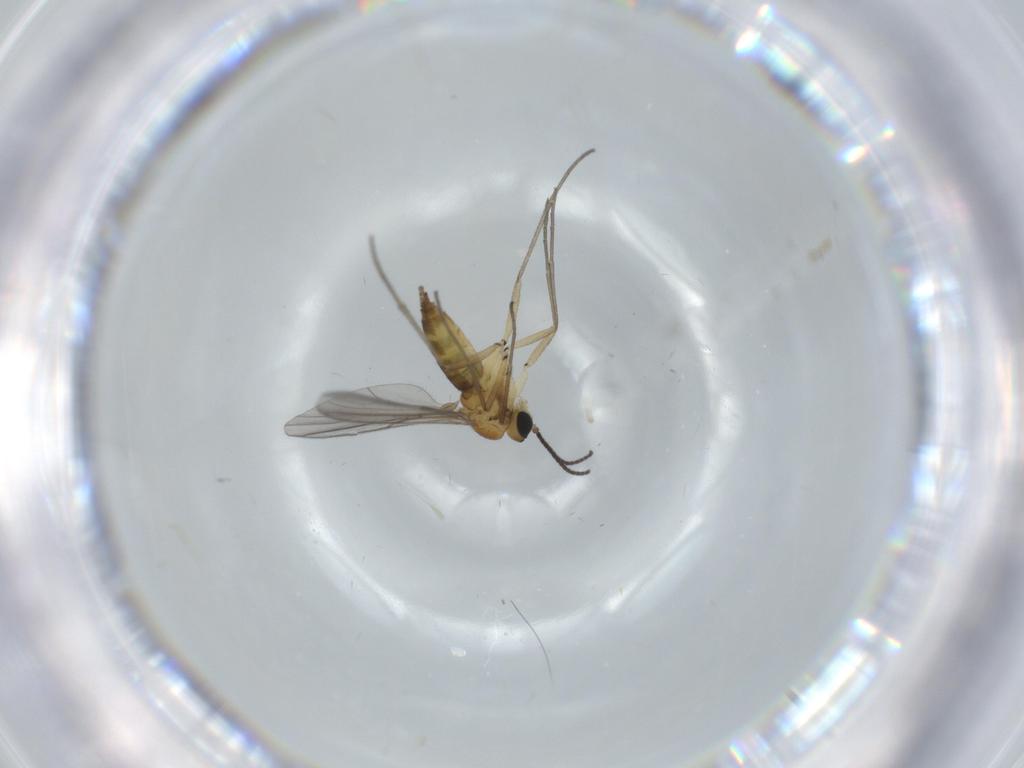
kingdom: Animalia
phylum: Arthropoda
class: Insecta
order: Diptera
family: Sciaridae
